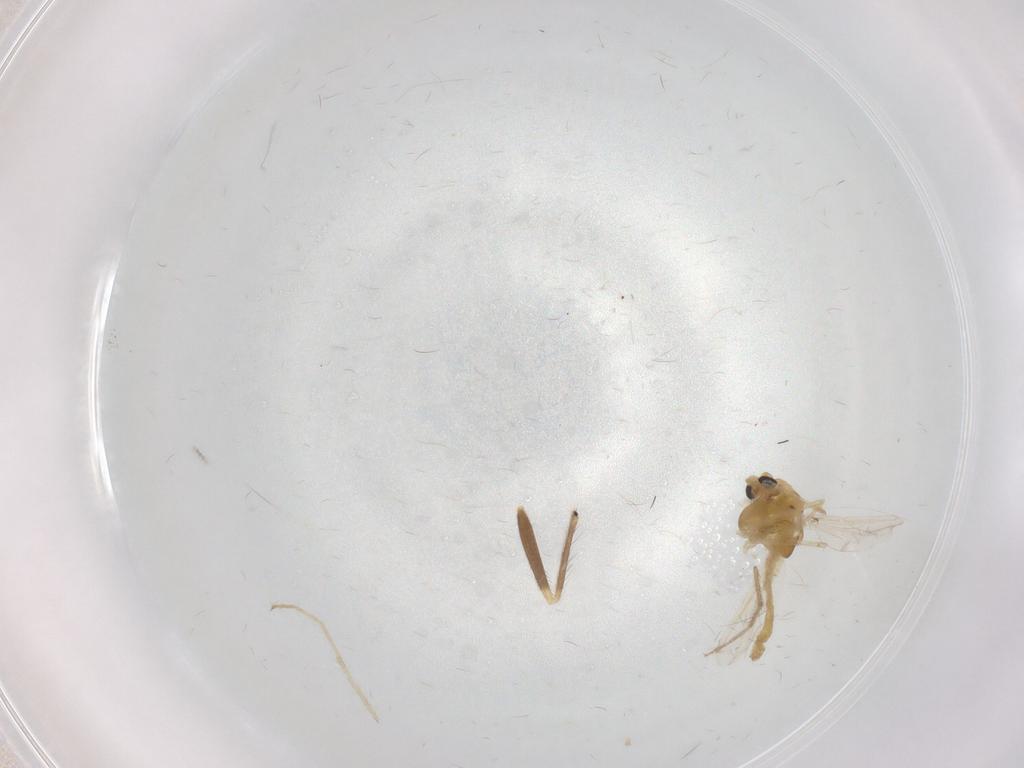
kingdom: Animalia
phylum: Arthropoda
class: Insecta
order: Diptera
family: Chironomidae
